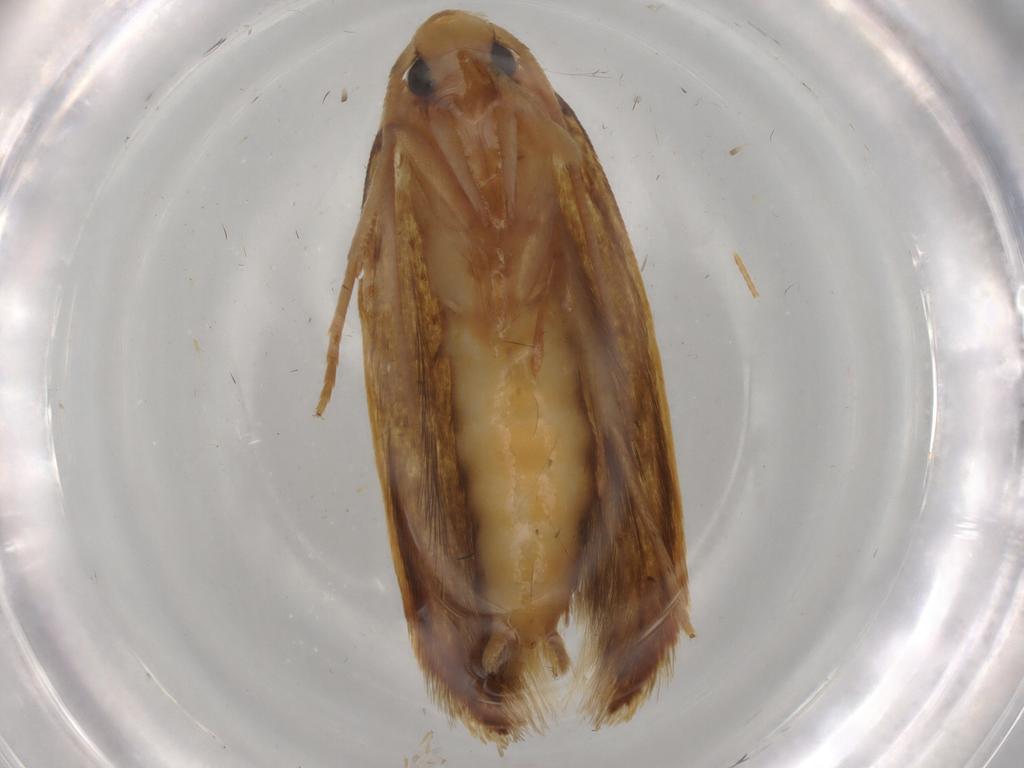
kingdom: Animalia
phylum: Arthropoda
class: Insecta
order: Lepidoptera
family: Tineidae
